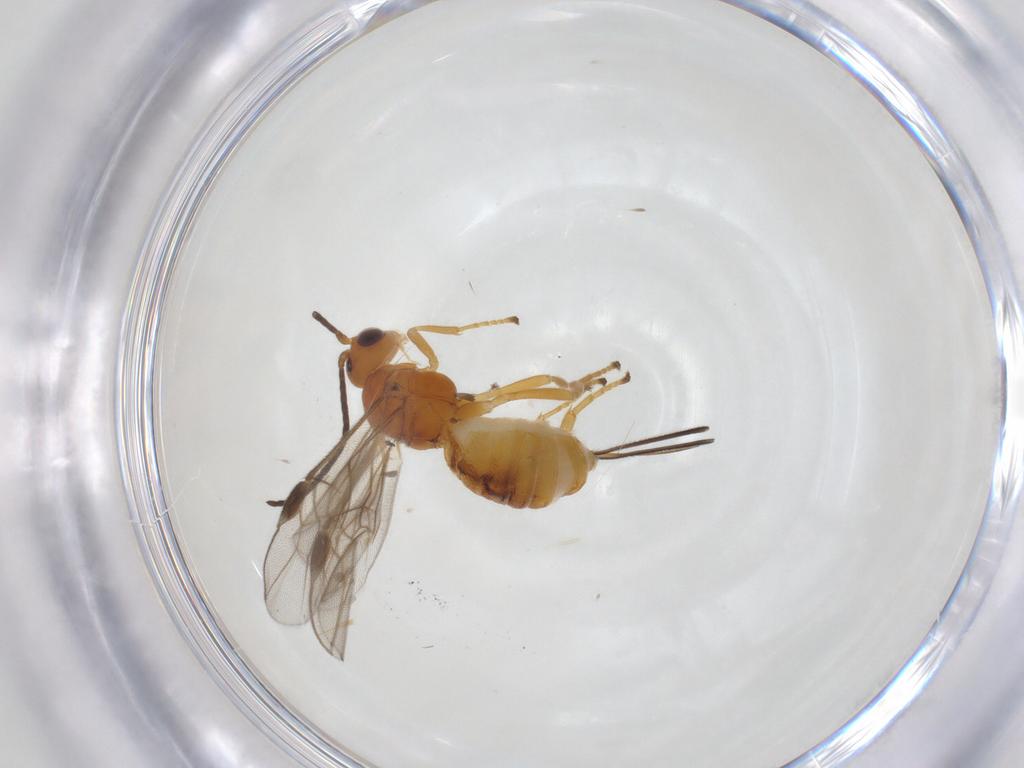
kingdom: Animalia
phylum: Arthropoda
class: Insecta
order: Hymenoptera
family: Braconidae
